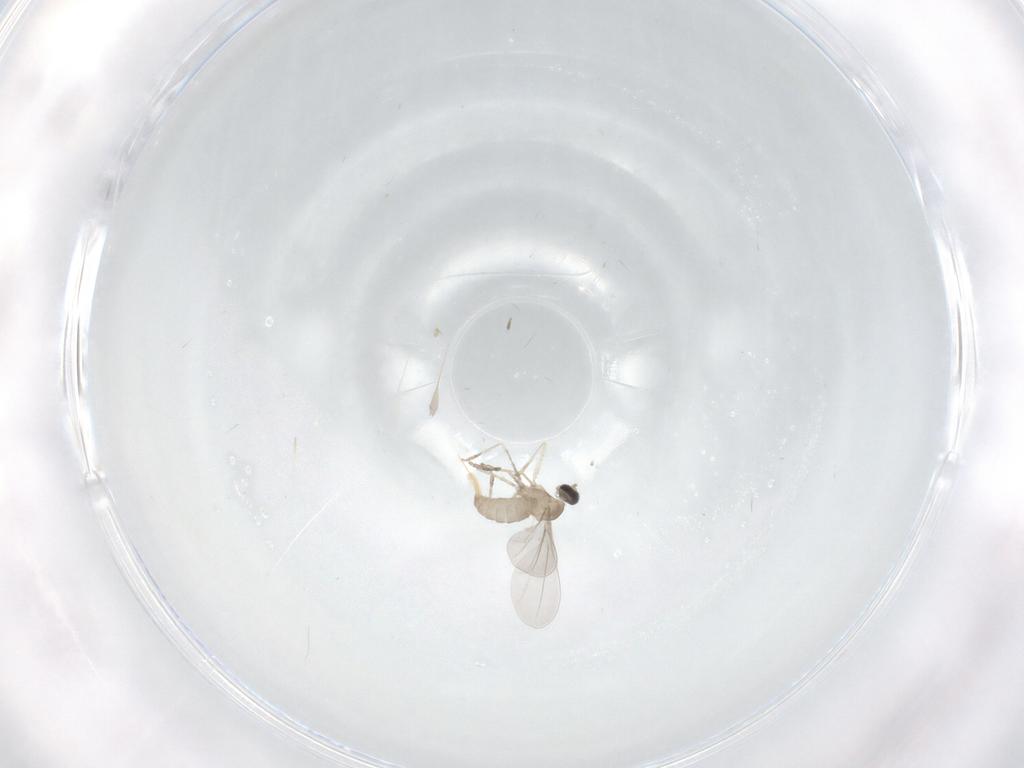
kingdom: Animalia
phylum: Arthropoda
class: Insecta
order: Diptera
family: Cecidomyiidae
